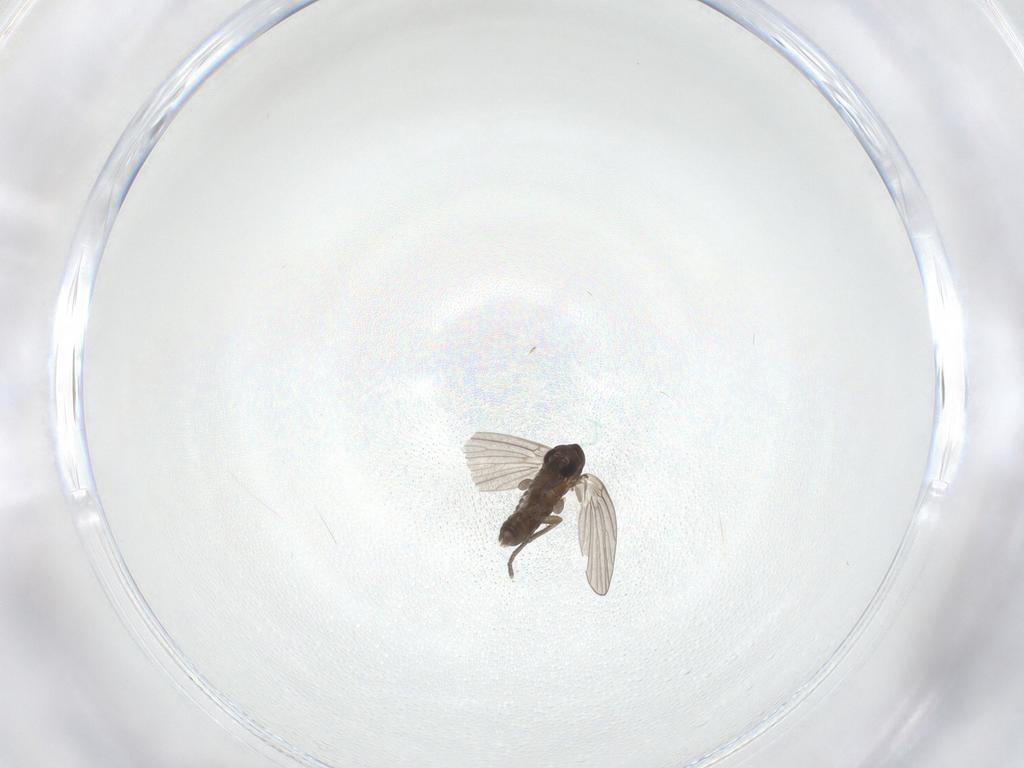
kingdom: Animalia
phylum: Arthropoda
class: Insecta
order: Diptera
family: Sciaridae
